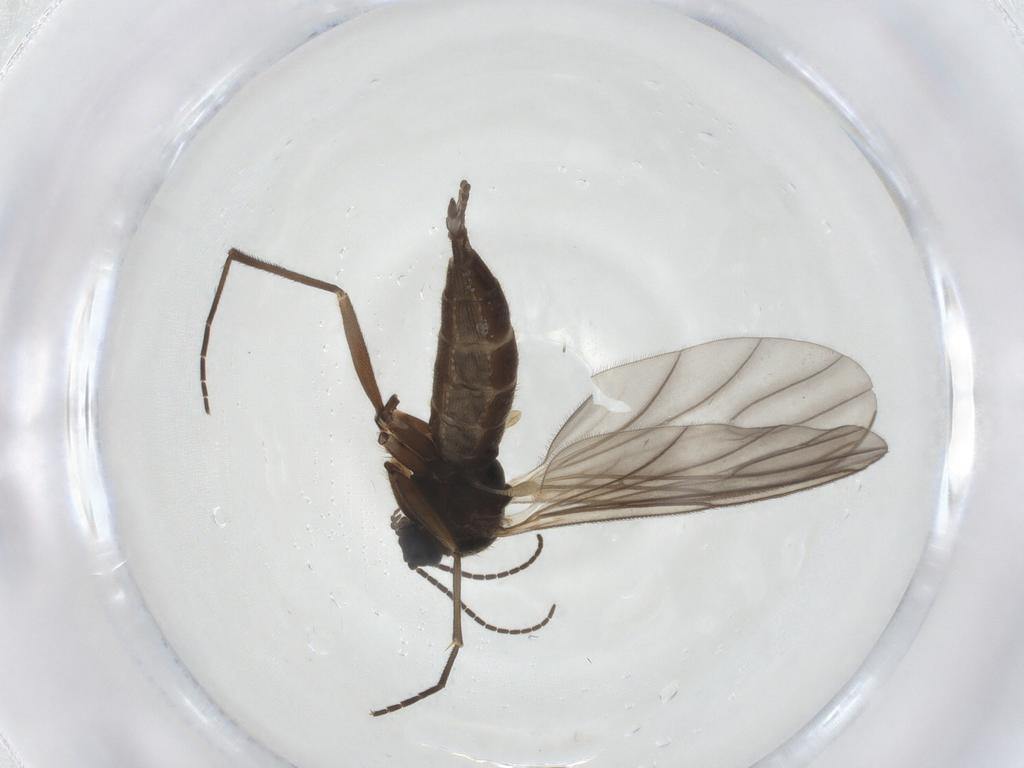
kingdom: Animalia
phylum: Arthropoda
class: Insecta
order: Diptera
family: Sciaridae
